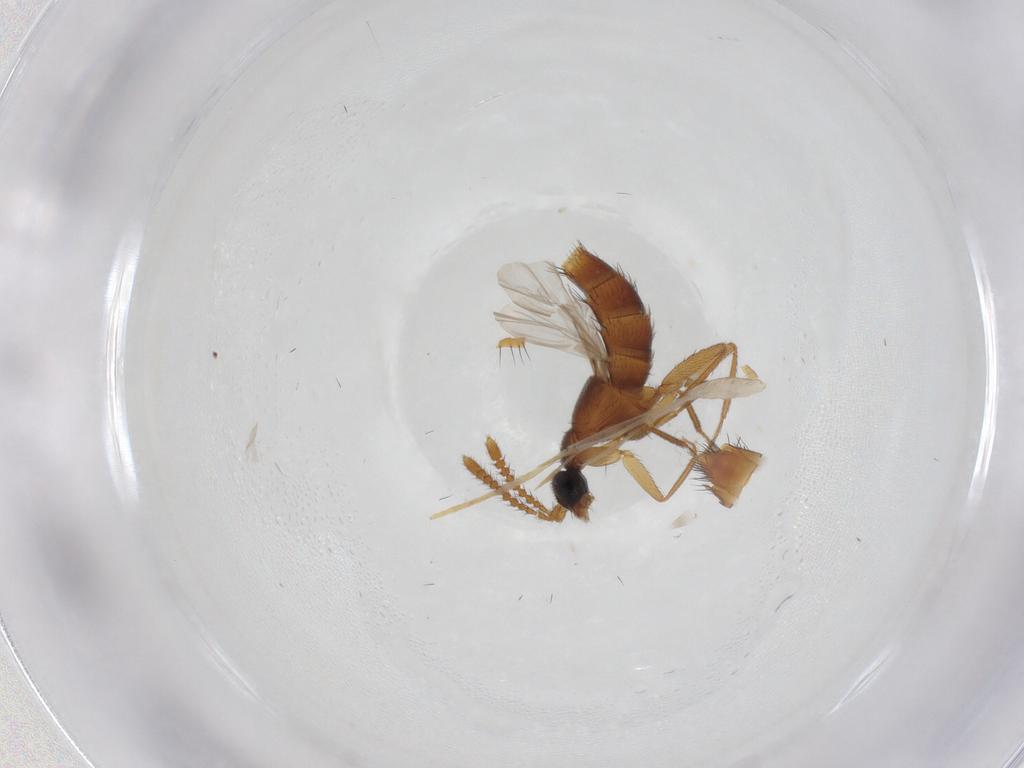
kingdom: Animalia
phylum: Arthropoda
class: Insecta
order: Coleoptera
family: Staphylinidae
